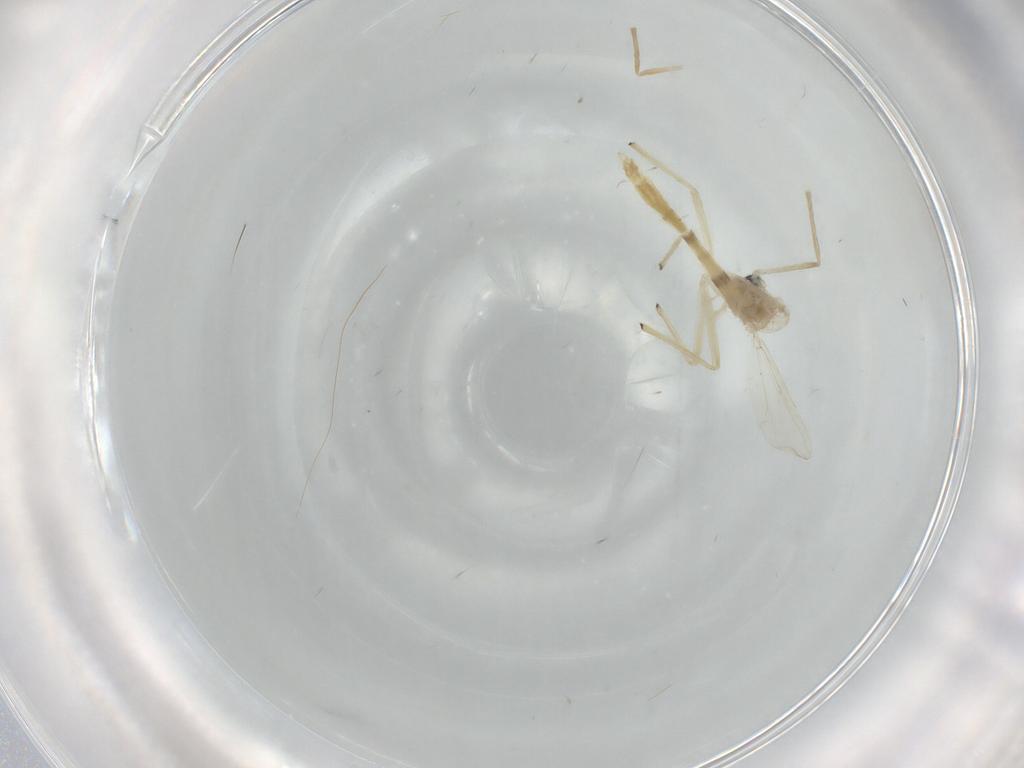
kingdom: Animalia
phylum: Arthropoda
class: Insecta
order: Diptera
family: Chironomidae
